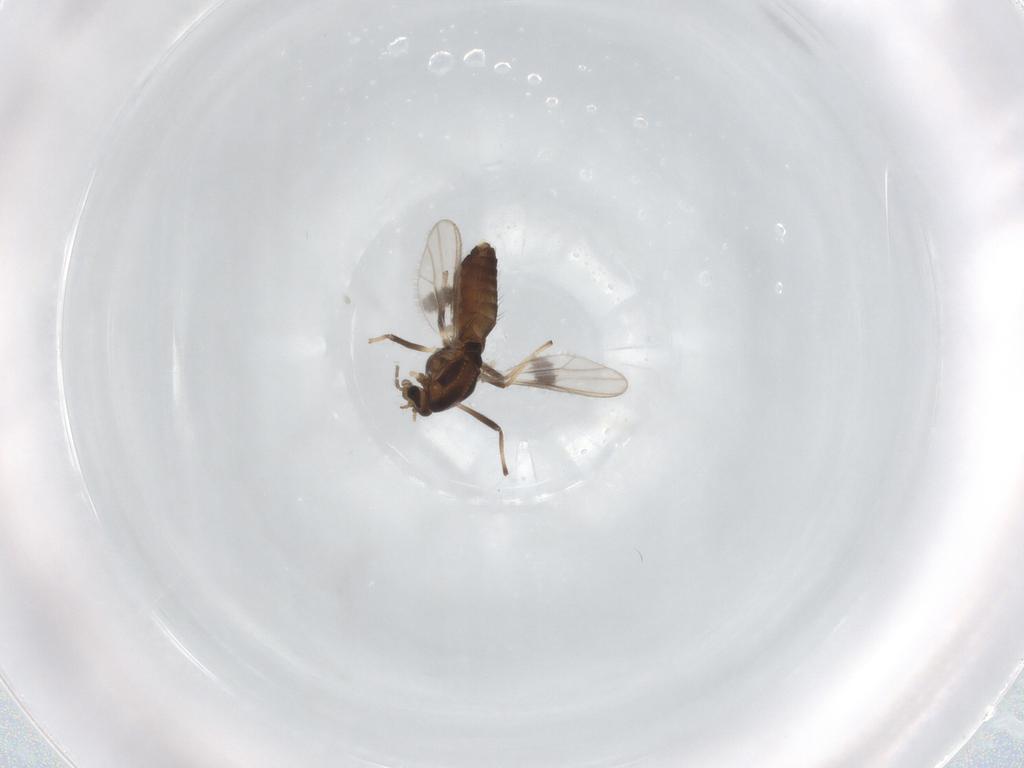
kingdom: Animalia
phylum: Arthropoda
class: Insecta
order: Diptera
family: Chironomidae
